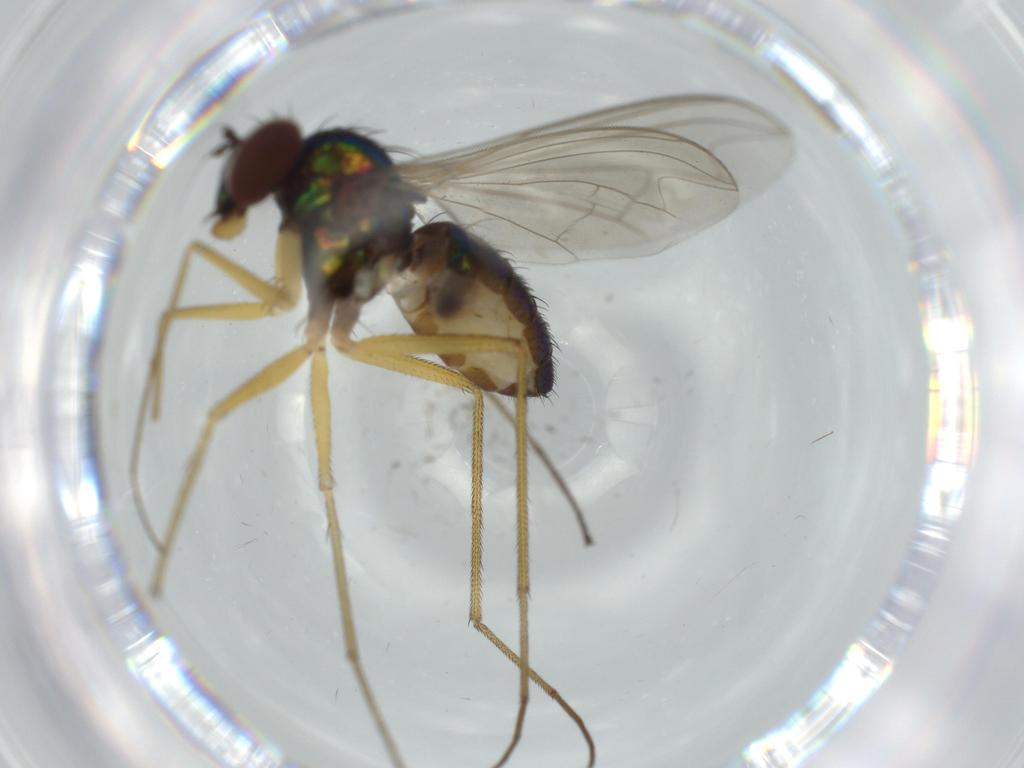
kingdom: Animalia
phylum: Arthropoda
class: Insecta
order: Diptera
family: Dolichopodidae
